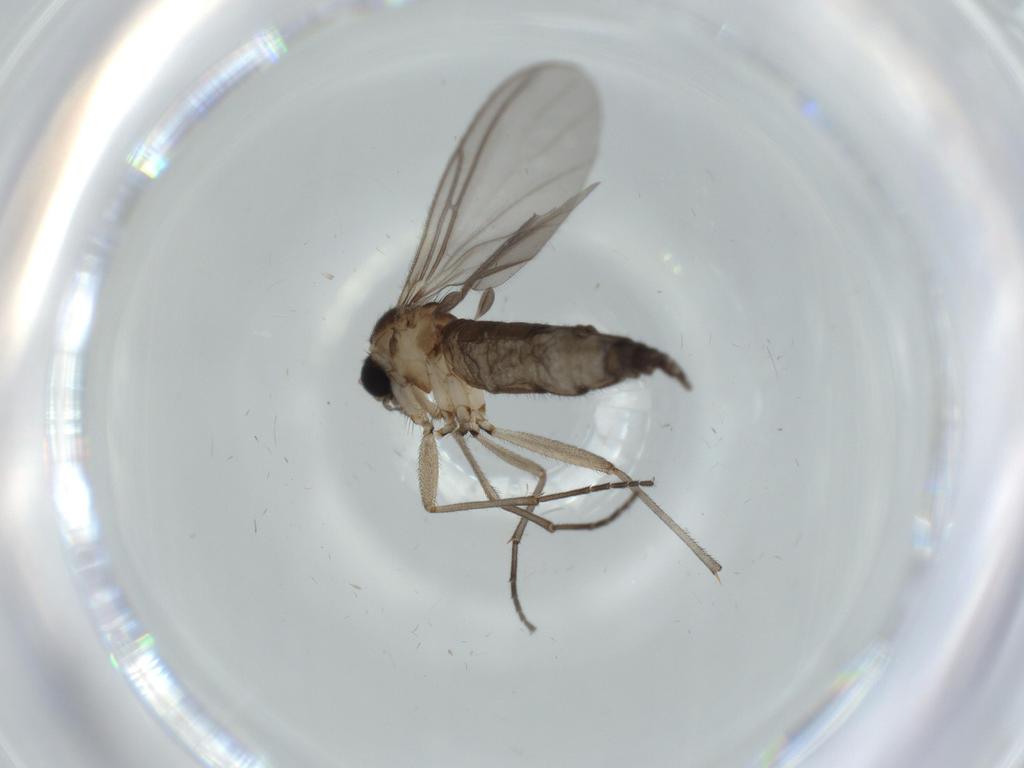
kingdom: Animalia
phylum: Arthropoda
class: Insecta
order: Diptera
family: Sciaridae
